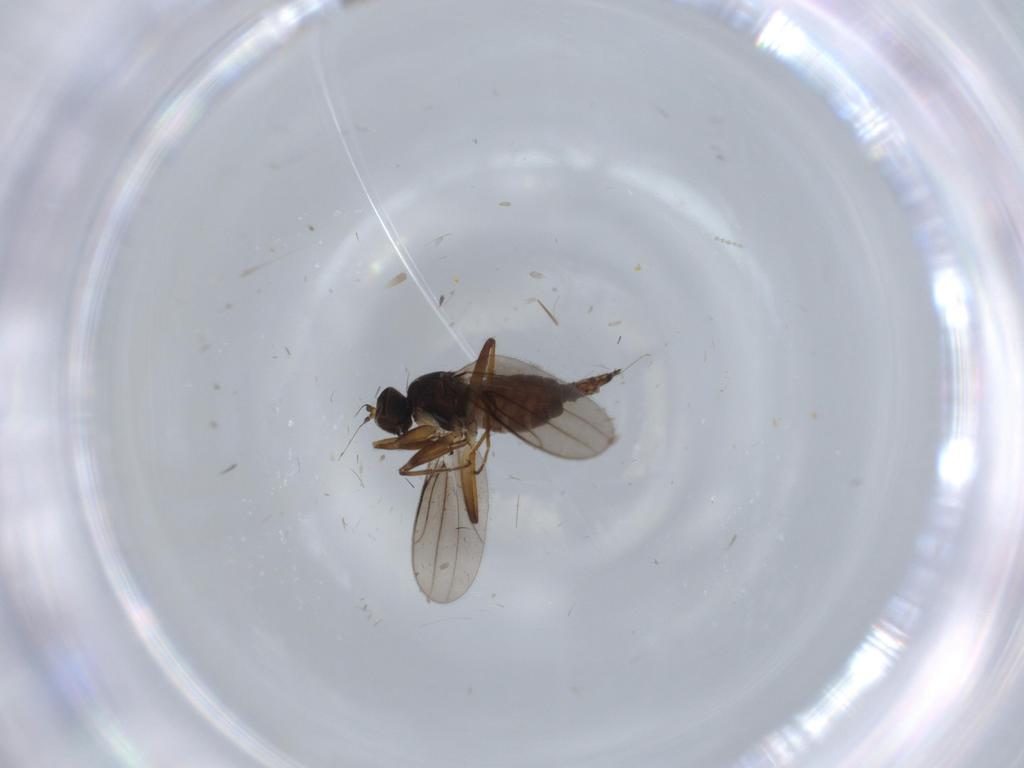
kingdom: Animalia
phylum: Arthropoda
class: Insecta
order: Diptera
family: Hybotidae
